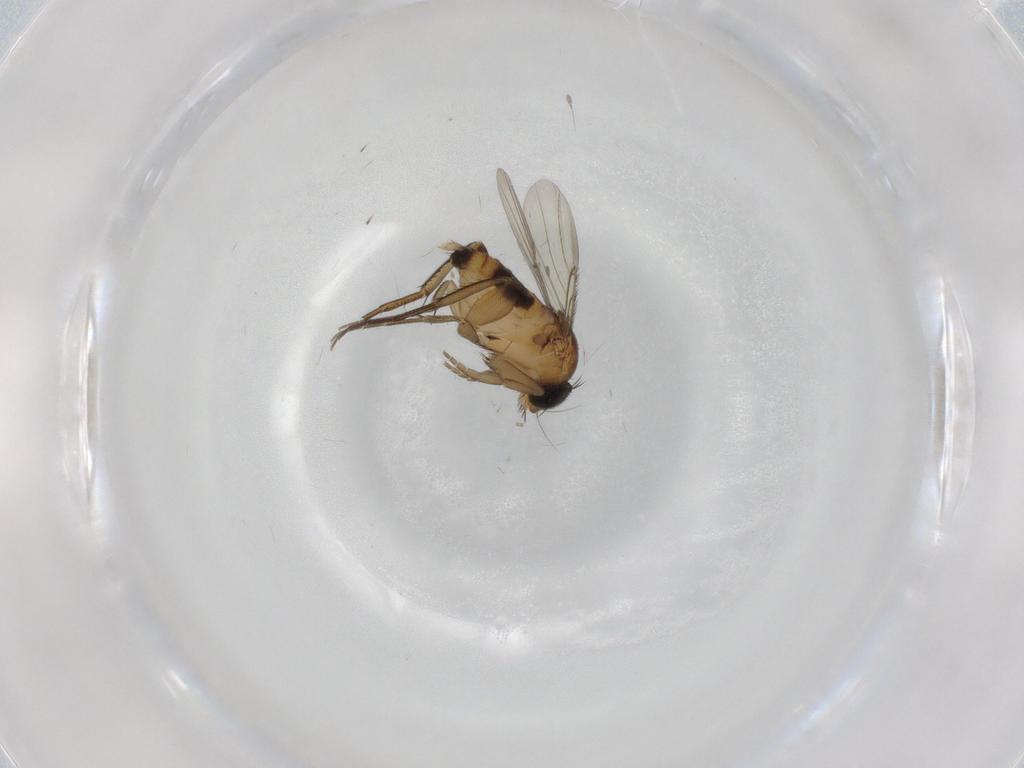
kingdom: Animalia
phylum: Arthropoda
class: Insecta
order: Diptera
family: Phoridae
